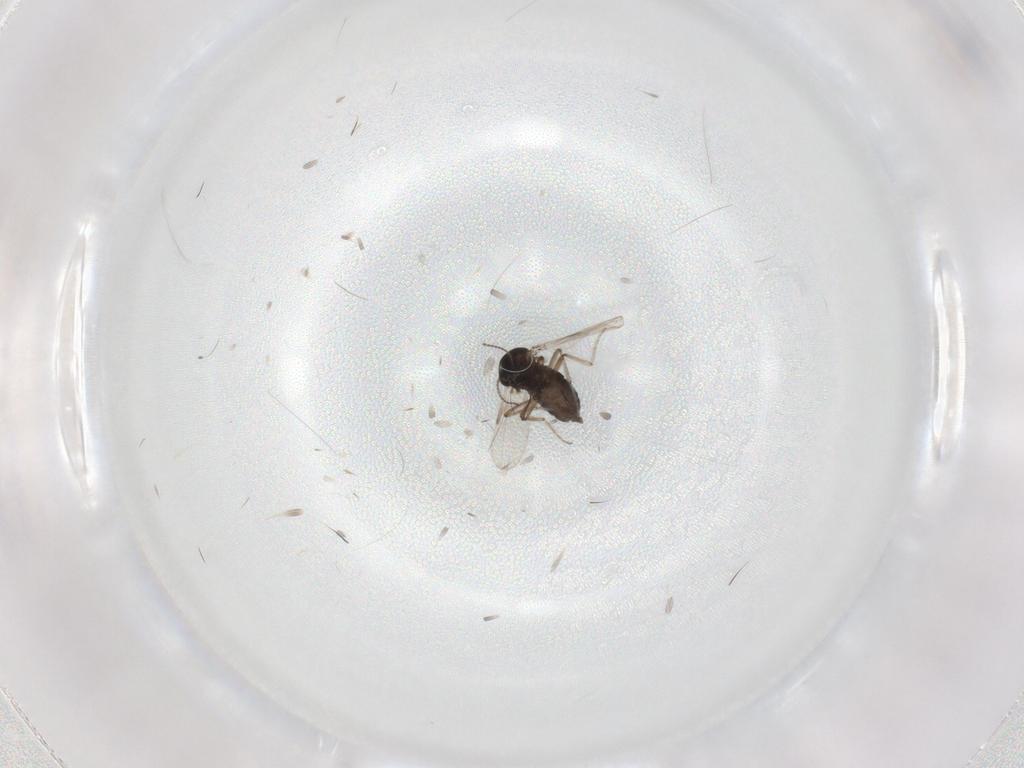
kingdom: Animalia
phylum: Arthropoda
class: Insecta
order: Diptera
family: Ceratopogonidae
